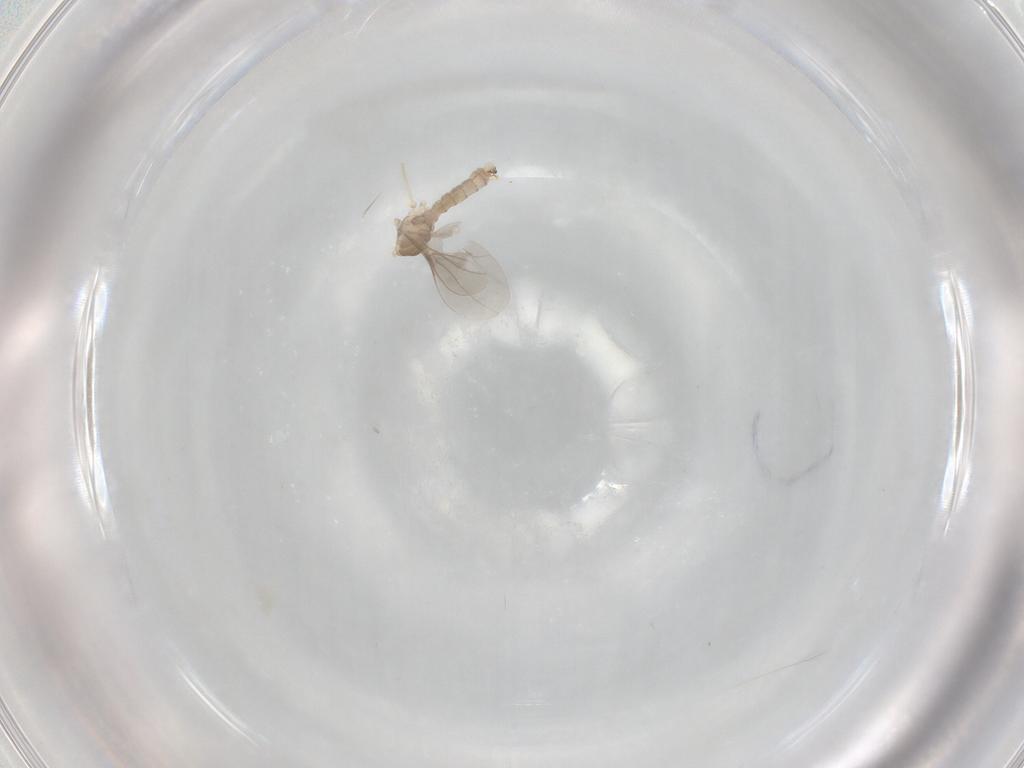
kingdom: Animalia
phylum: Arthropoda
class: Insecta
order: Diptera
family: Cecidomyiidae
